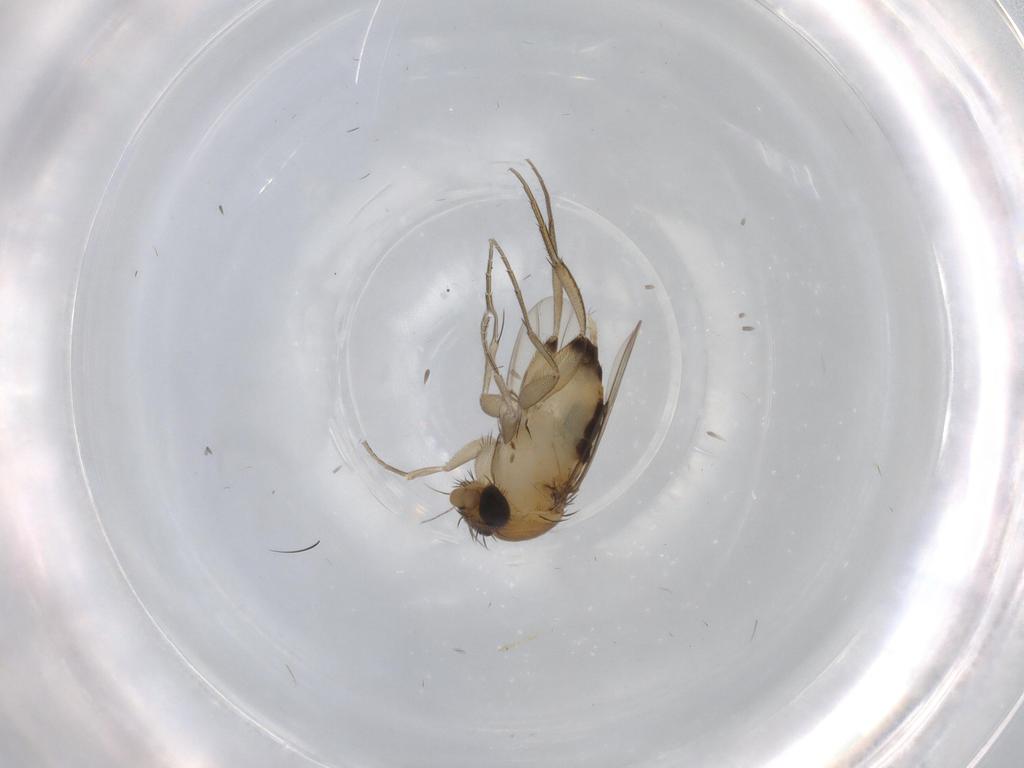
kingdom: Animalia
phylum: Arthropoda
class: Insecta
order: Diptera
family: Phoridae
